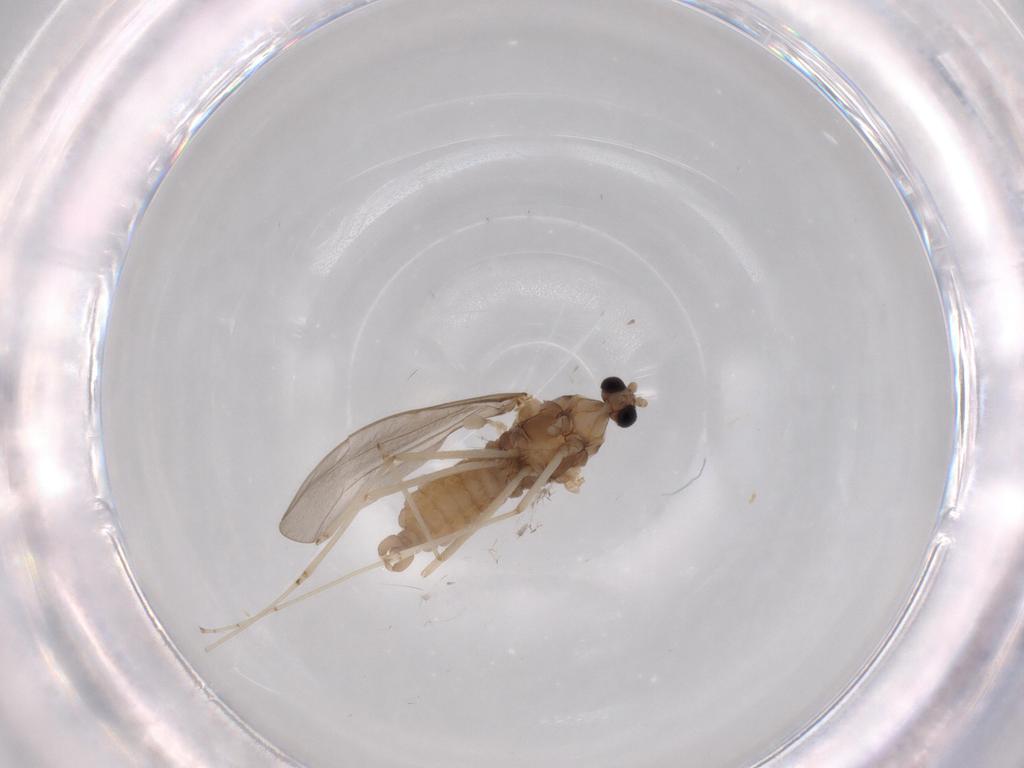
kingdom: Animalia
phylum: Arthropoda
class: Insecta
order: Diptera
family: Cecidomyiidae
